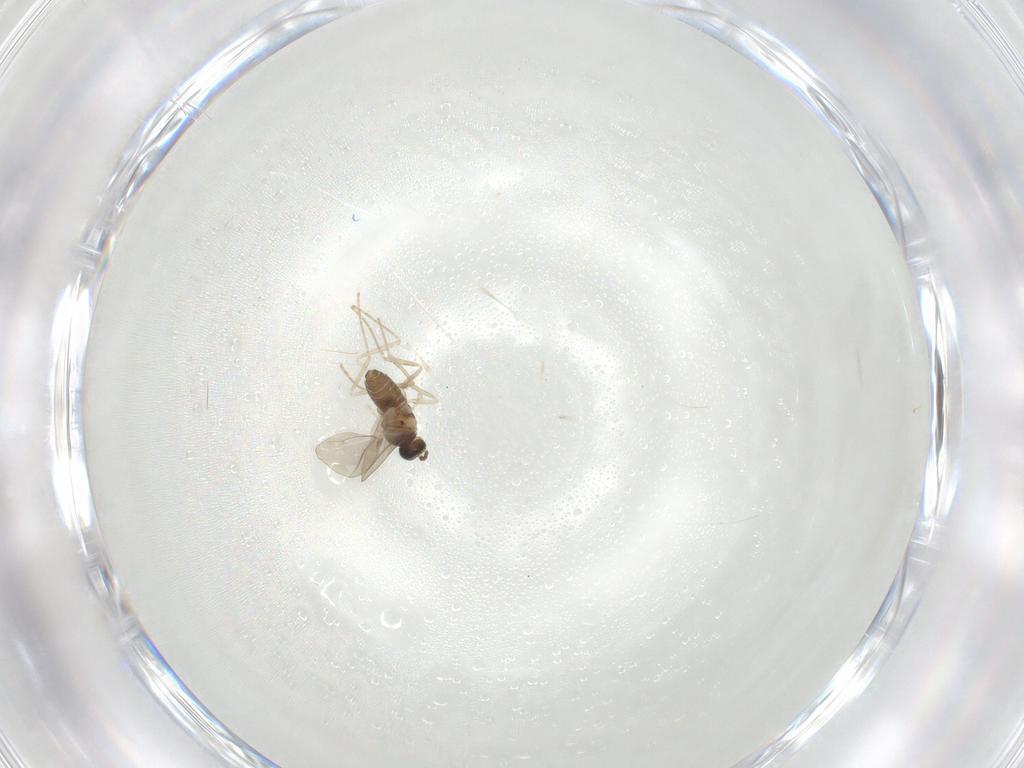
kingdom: Animalia
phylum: Arthropoda
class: Insecta
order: Diptera
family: Cecidomyiidae
